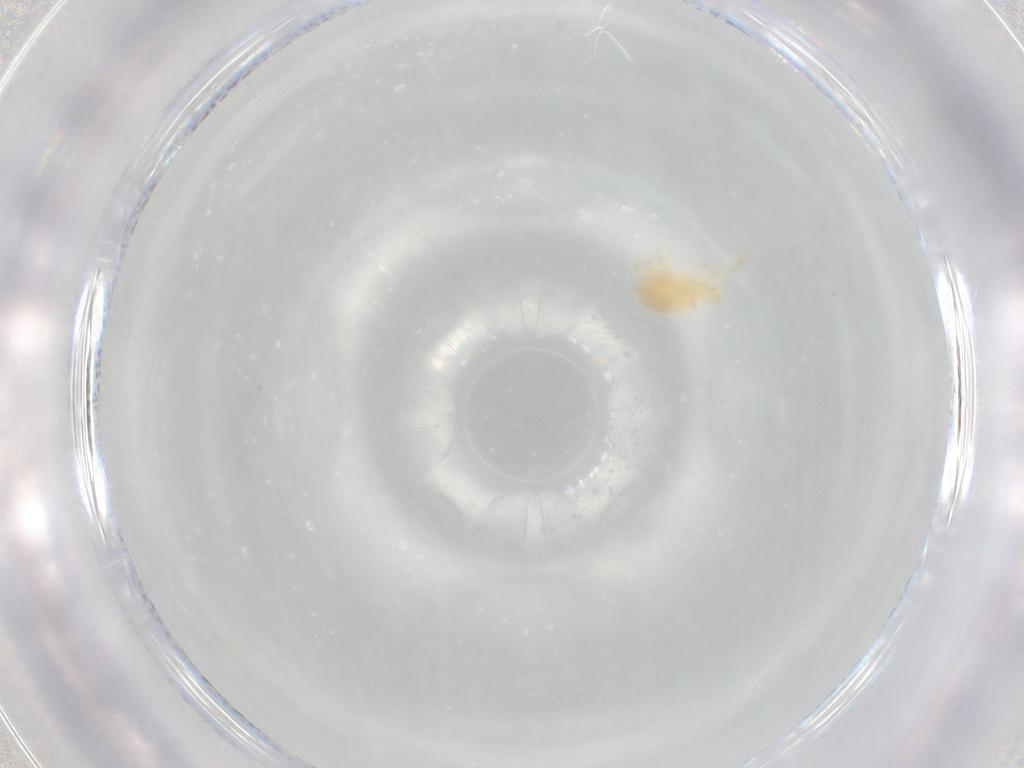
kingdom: Animalia
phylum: Arthropoda
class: Arachnida
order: Trombidiformes
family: Erythraeidae
